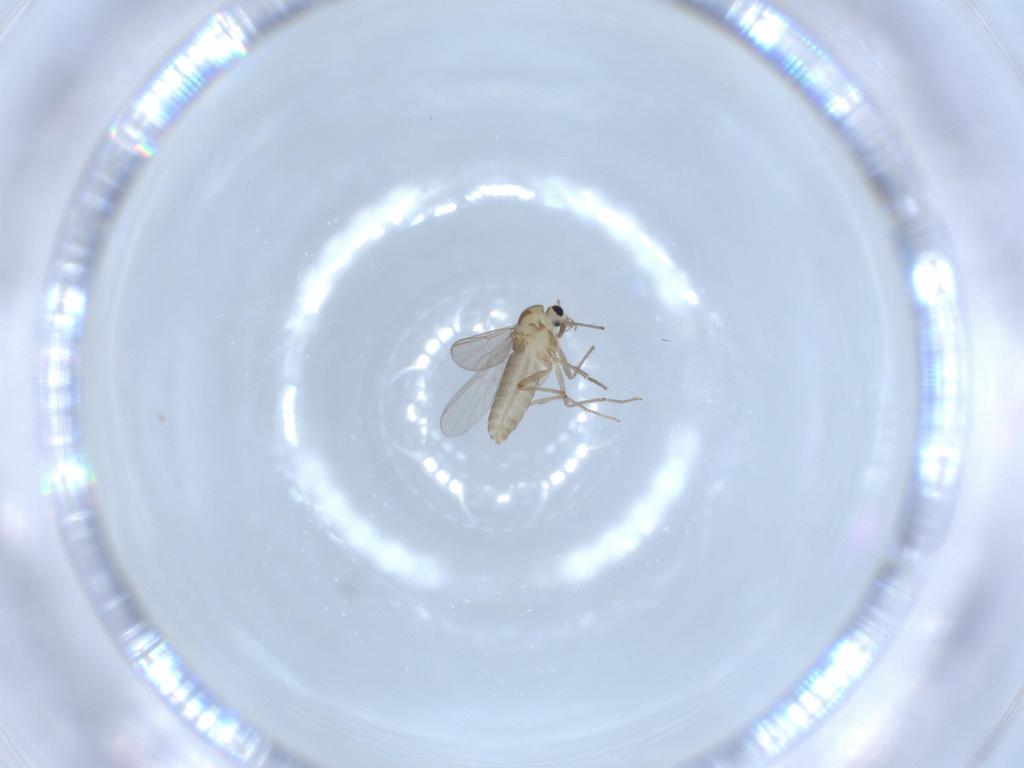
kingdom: Animalia
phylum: Arthropoda
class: Insecta
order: Diptera
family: Chironomidae
